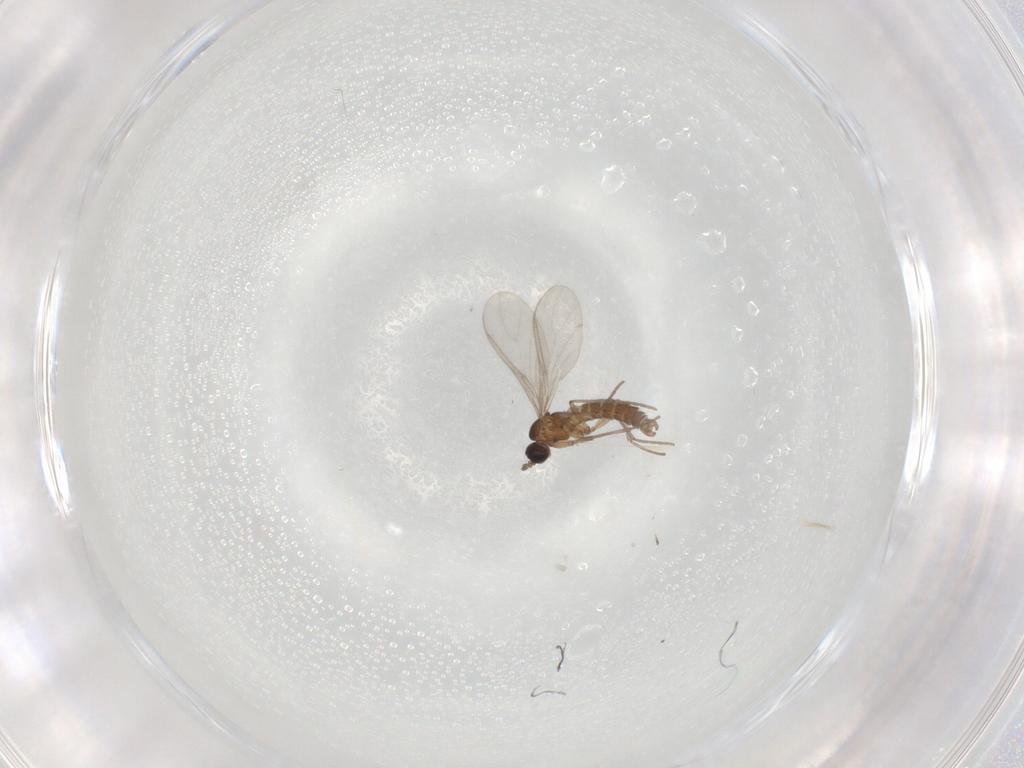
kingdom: Animalia
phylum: Arthropoda
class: Insecta
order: Diptera
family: Sciaridae
